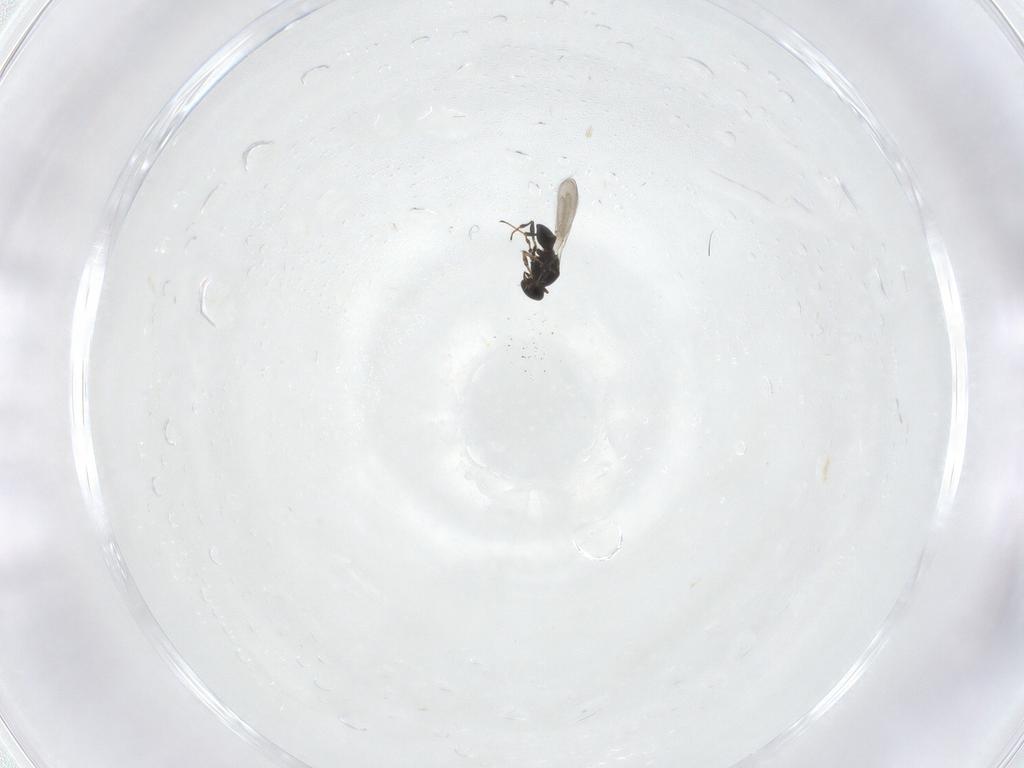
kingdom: Animalia
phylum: Arthropoda
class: Insecta
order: Hymenoptera
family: Platygastridae
